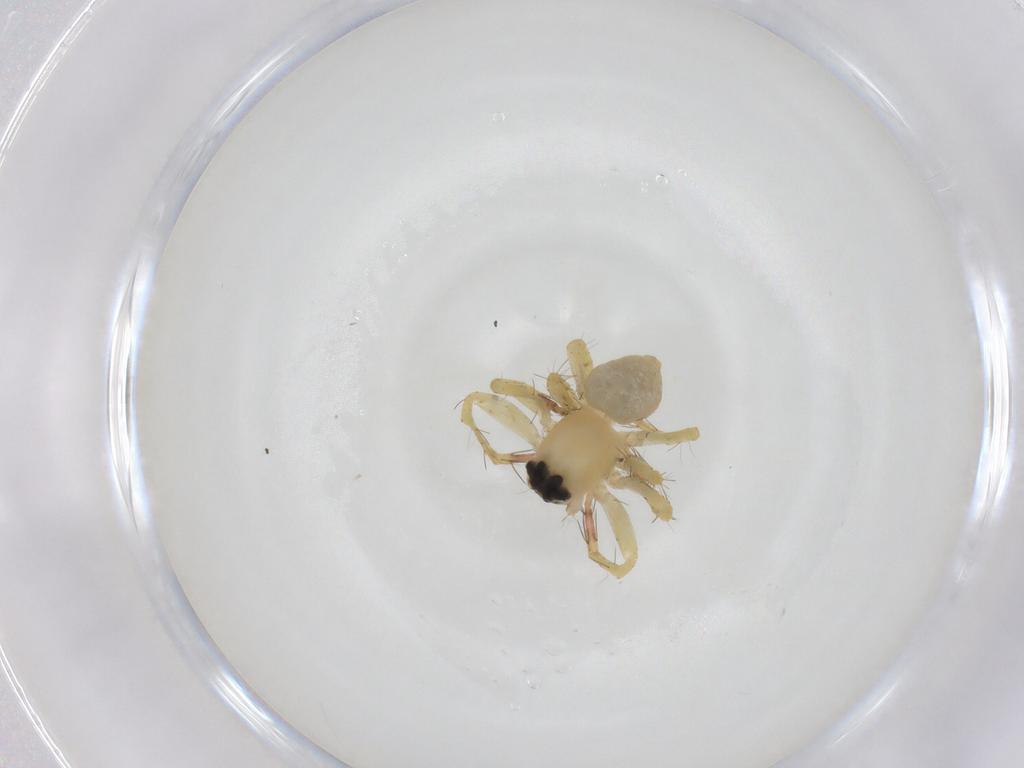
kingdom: Animalia
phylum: Arthropoda
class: Arachnida
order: Araneae
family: Oxyopidae
